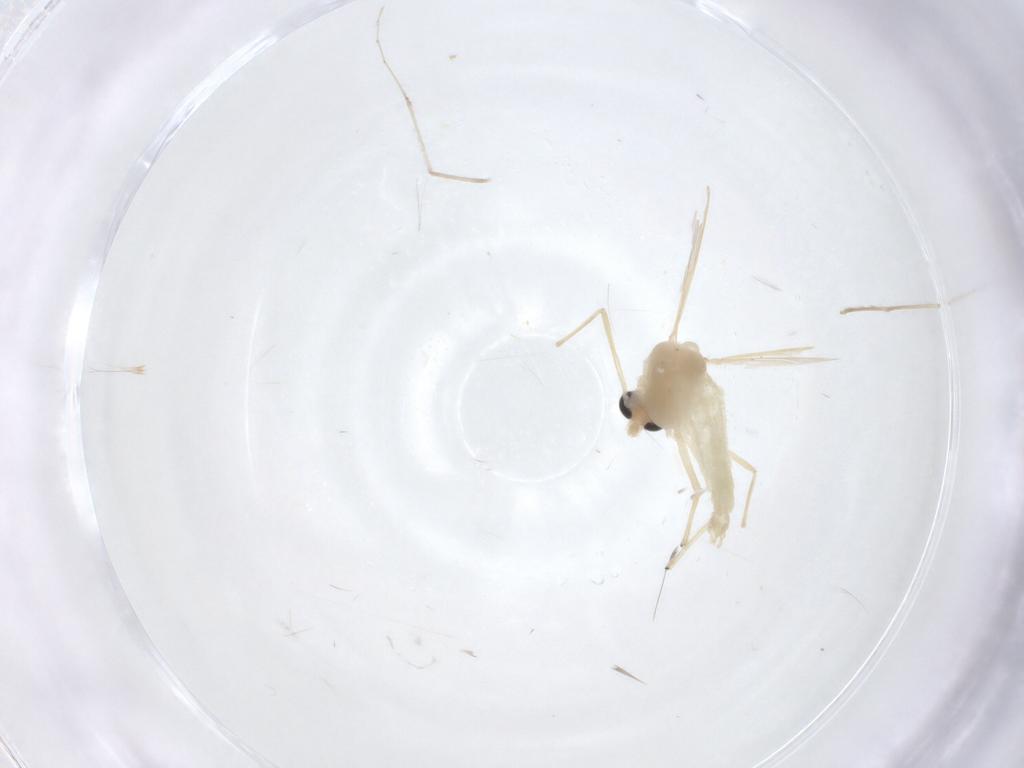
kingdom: Animalia
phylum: Arthropoda
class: Insecta
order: Diptera
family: Chironomidae
